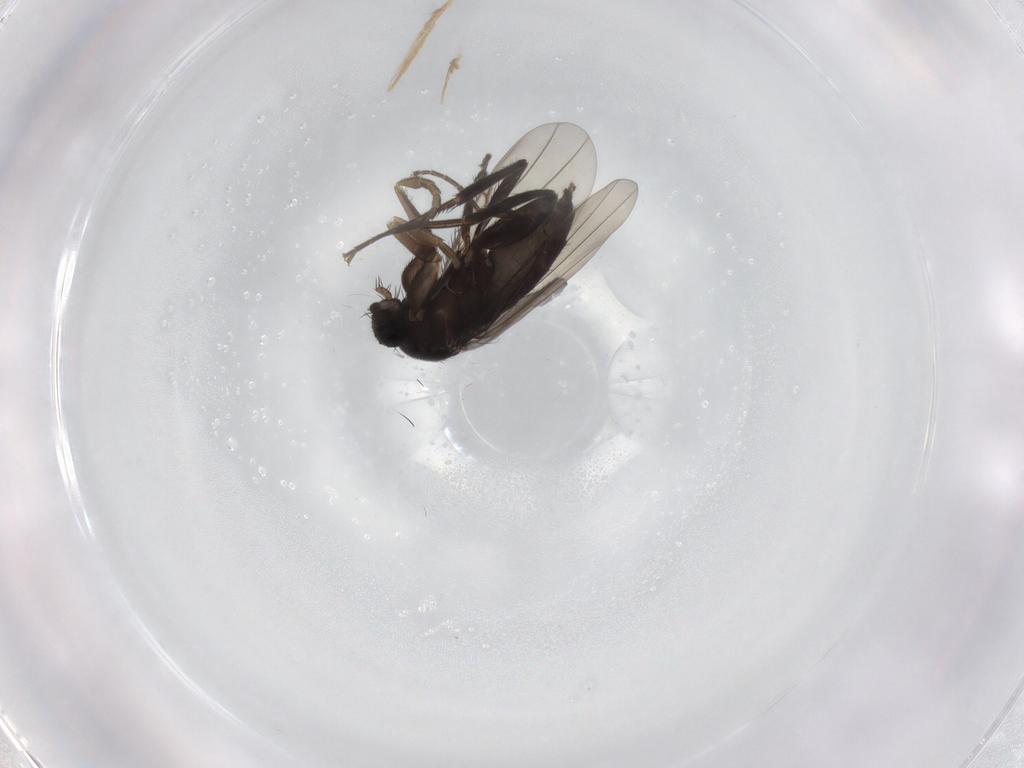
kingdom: Animalia
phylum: Arthropoda
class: Insecta
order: Diptera
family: Phoridae
